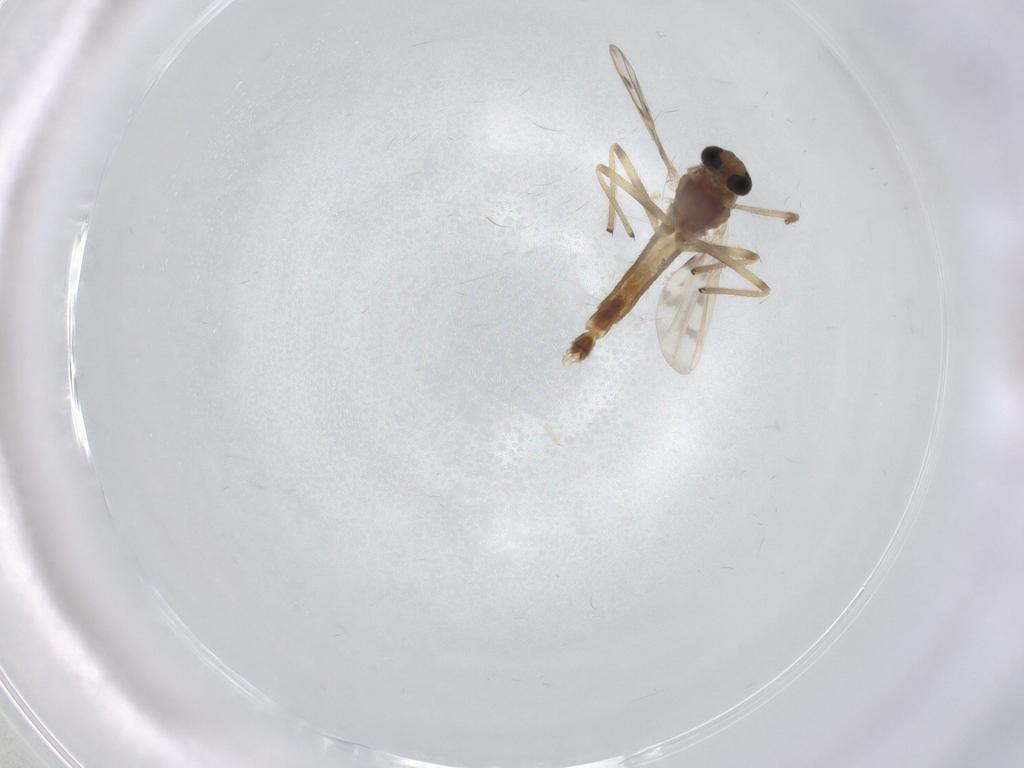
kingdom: Animalia
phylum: Arthropoda
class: Insecta
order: Diptera
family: Chironomidae
